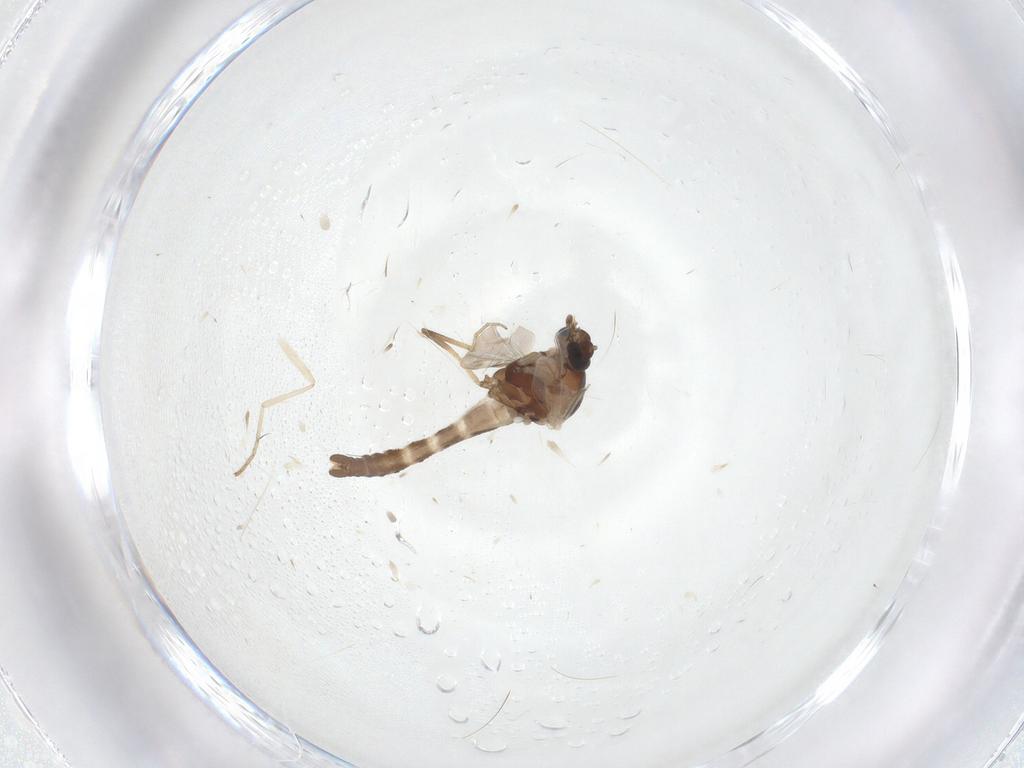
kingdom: Animalia
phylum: Arthropoda
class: Insecta
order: Diptera
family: Ceratopogonidae
